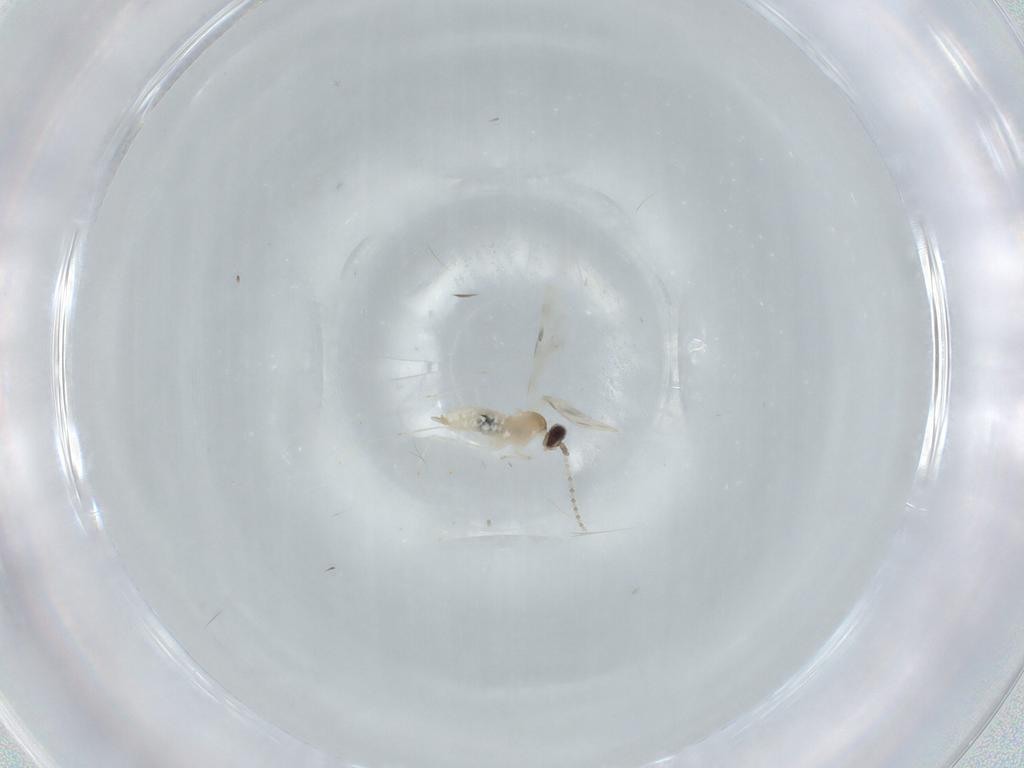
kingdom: Animalia
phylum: Arthropoda
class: Insecta
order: Diptera
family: Cecidomyiidae
